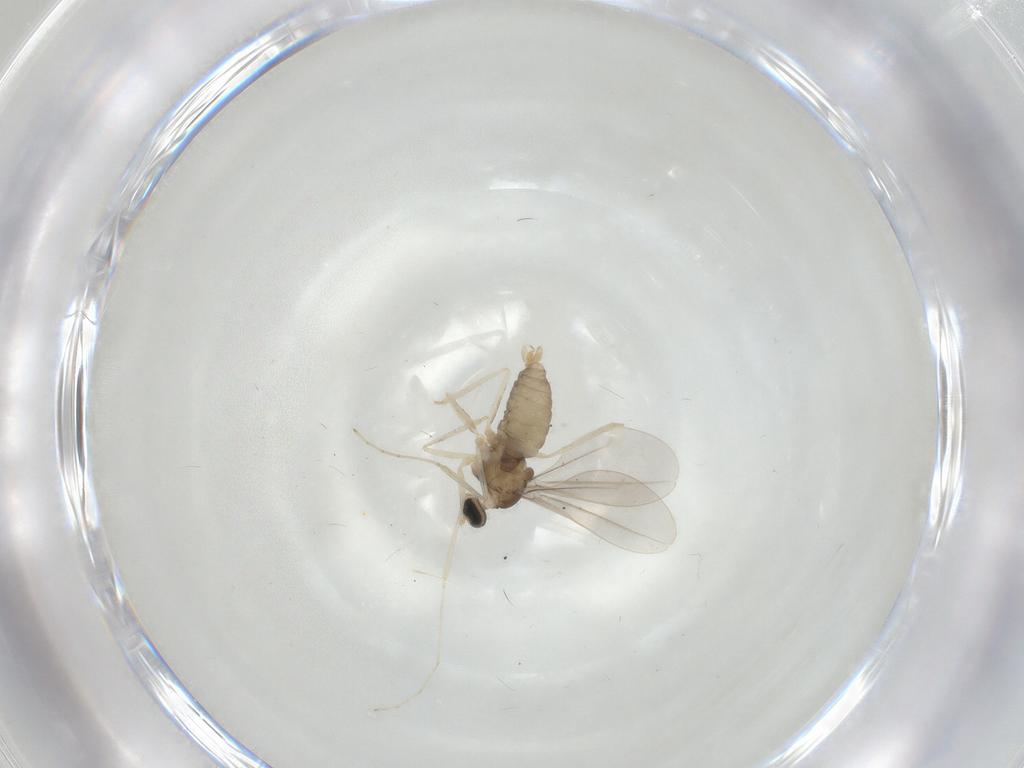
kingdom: Animalia
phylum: Arthropoda
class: Insecta
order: Diptera
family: Cecidomyiidae
